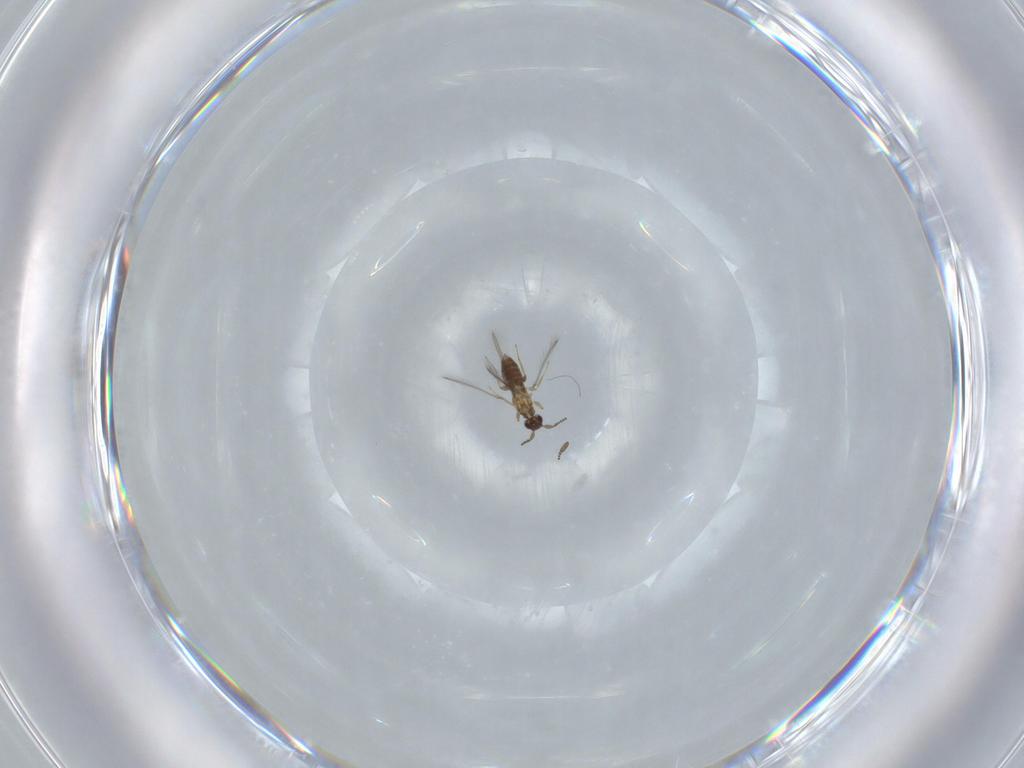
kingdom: Animalia
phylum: Arthropoda
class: Insecta
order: Hymenoptera
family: Mymaridae
